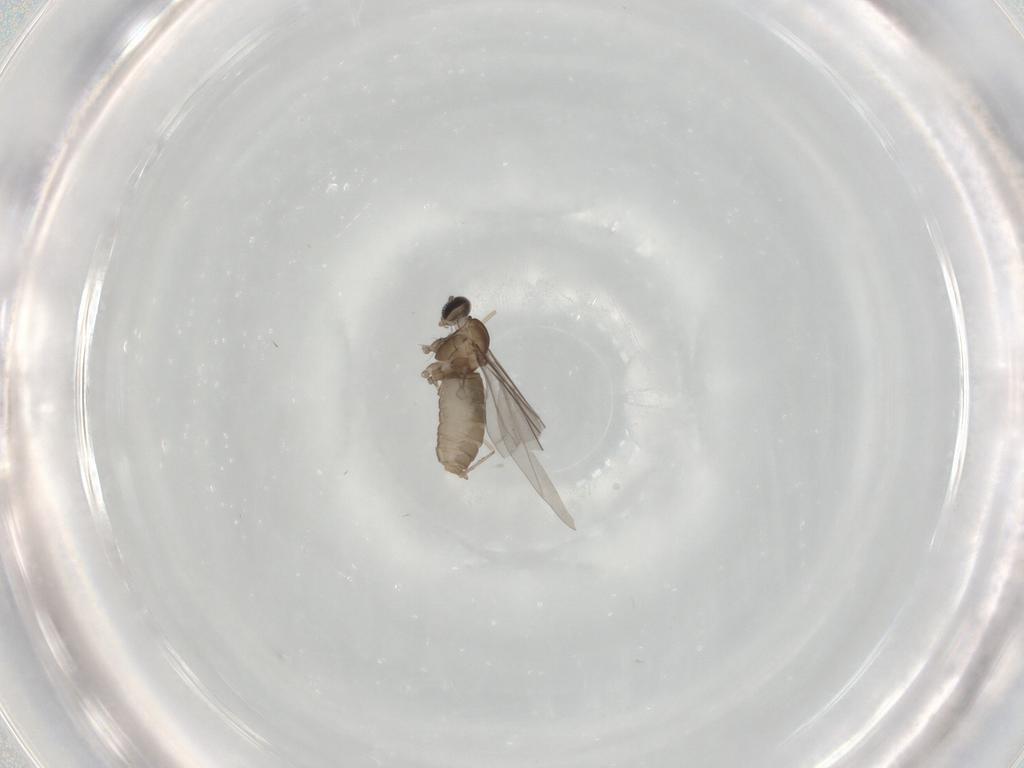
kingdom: Animalia
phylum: Arthropoda
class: Insecta
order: Diptera
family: Cecidomyiidae
